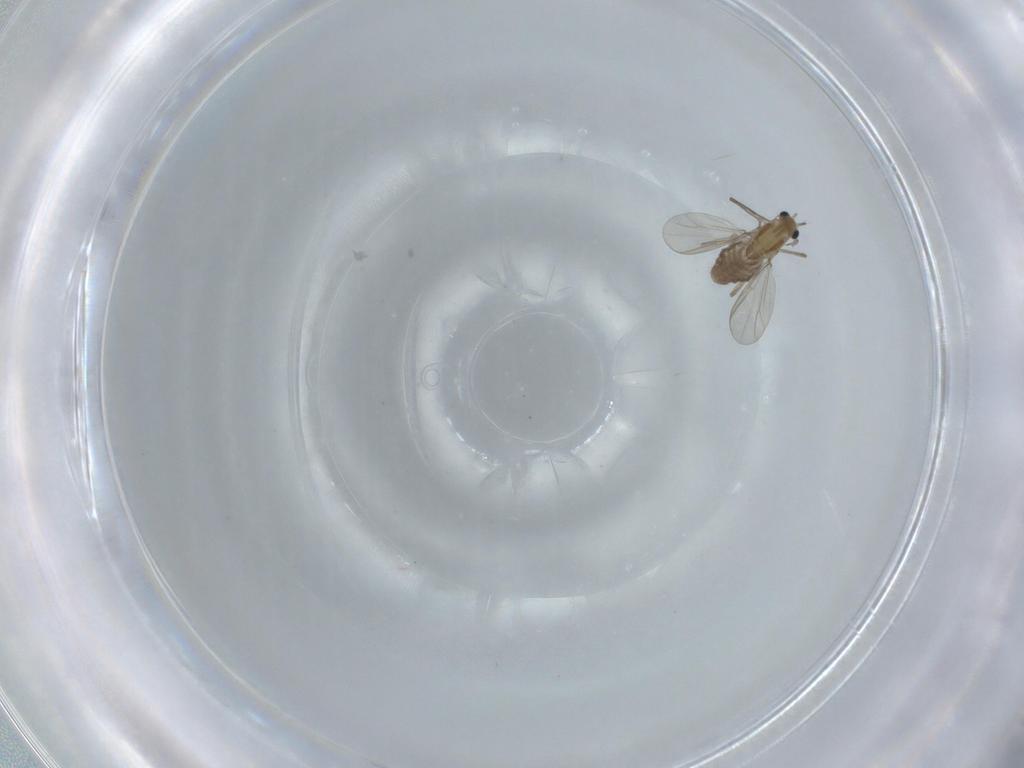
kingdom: Animalia
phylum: Arthropoda
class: Insecta
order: Diptera
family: Chironomidae
